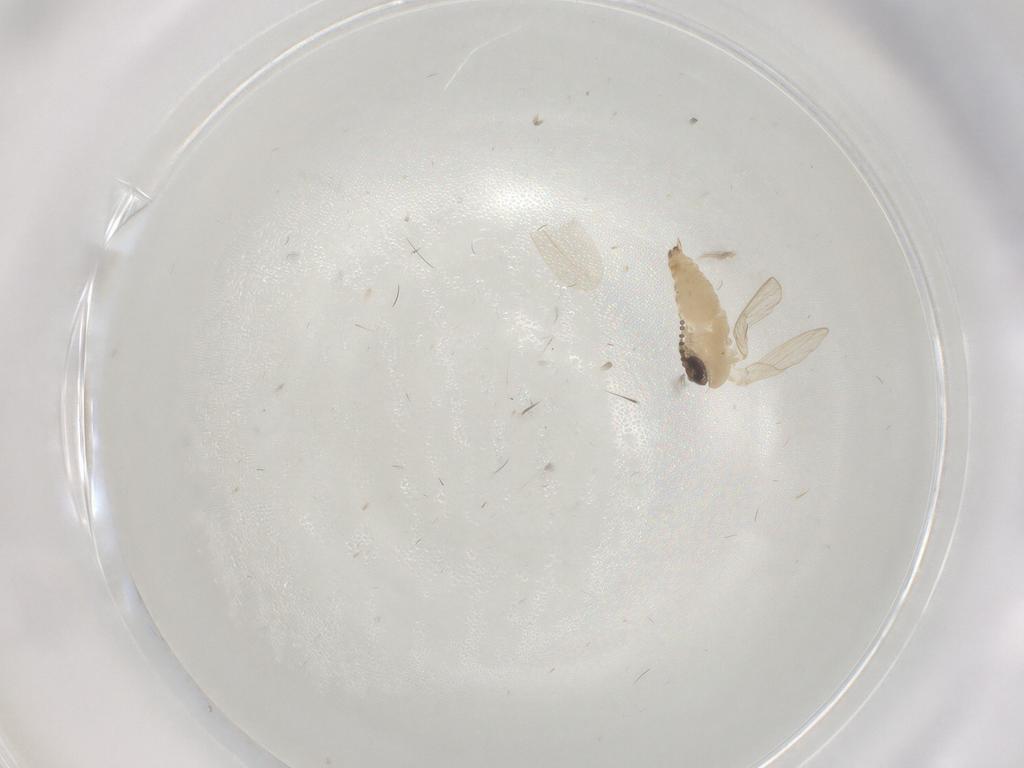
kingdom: Animalia
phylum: Arthropoda
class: Insecta
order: Diptera
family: Psychodidae
